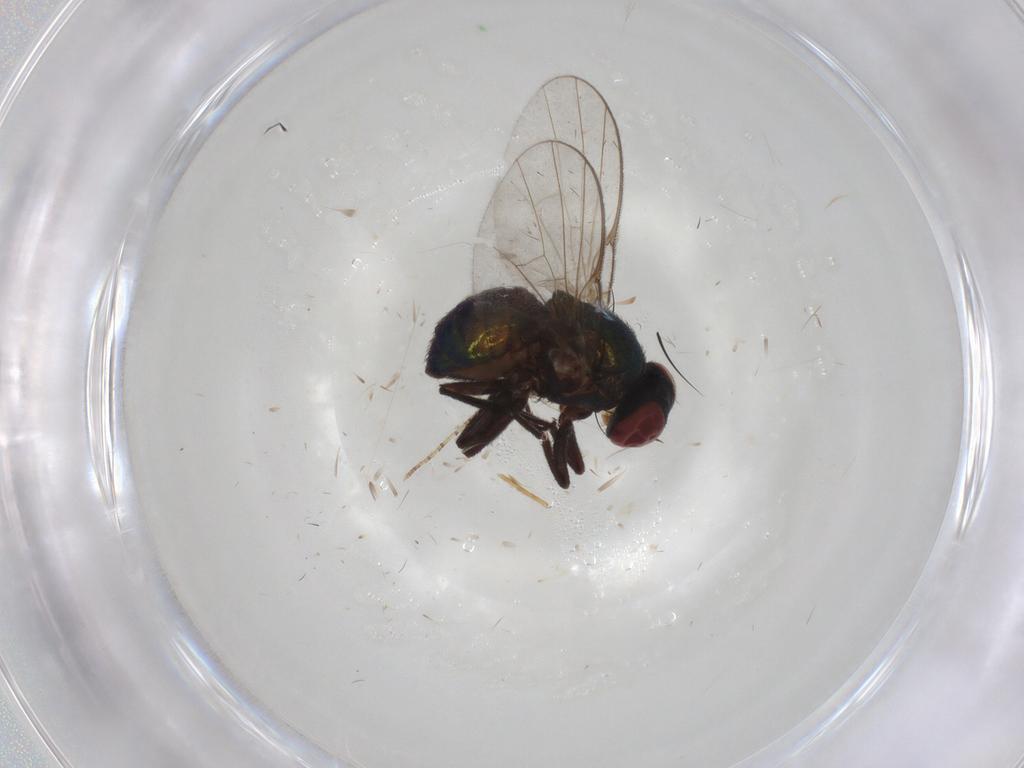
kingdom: Animalia
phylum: Arthropoda
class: Insecta
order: Diptera
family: Agromyzidae
